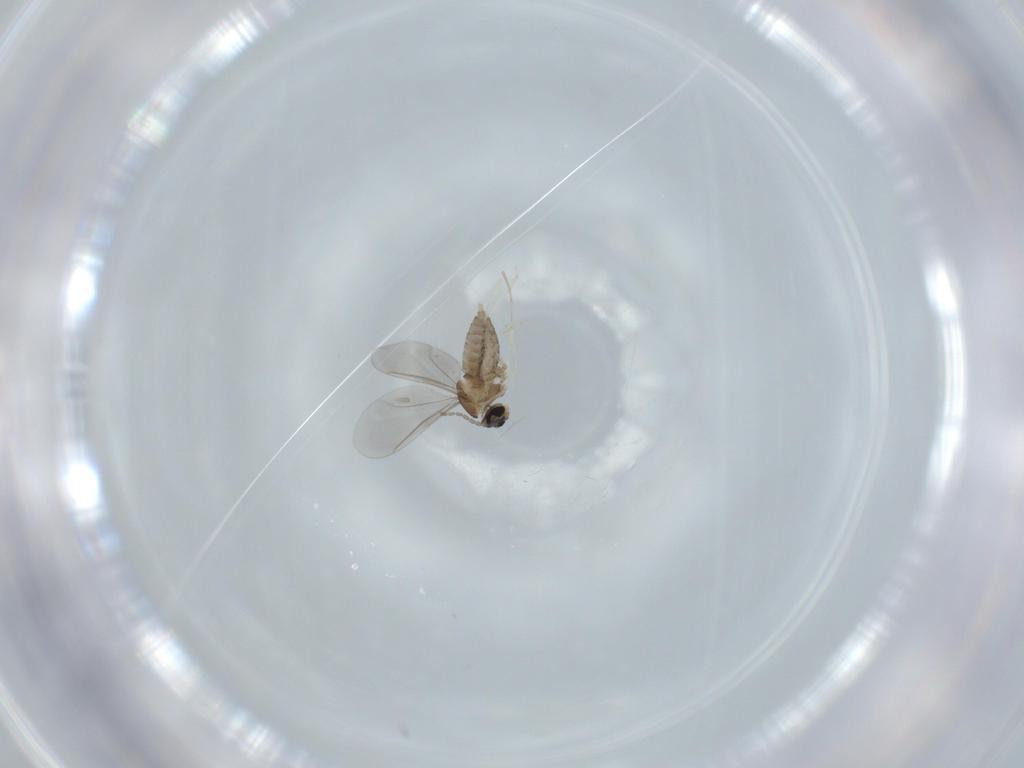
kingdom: Animalia
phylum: Arthropoda
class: Insecta
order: Diptera
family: Cecidomyiidae
